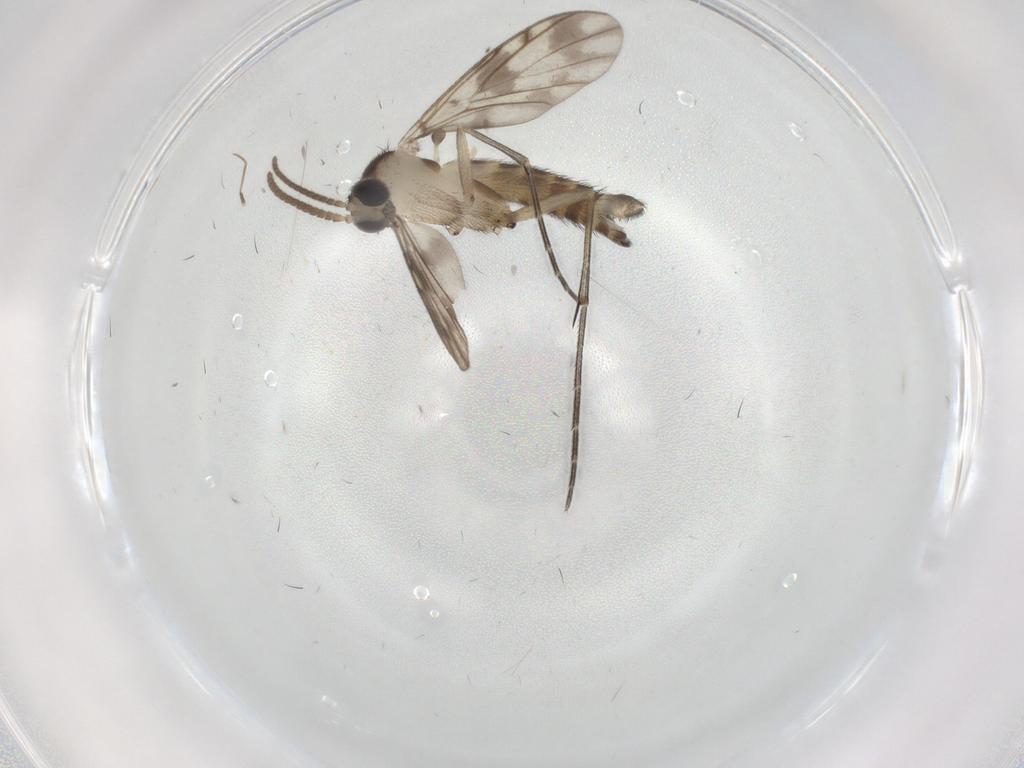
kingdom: Animalia
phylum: Arthropoda
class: Insecta
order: Diptera
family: Keroplatidae
